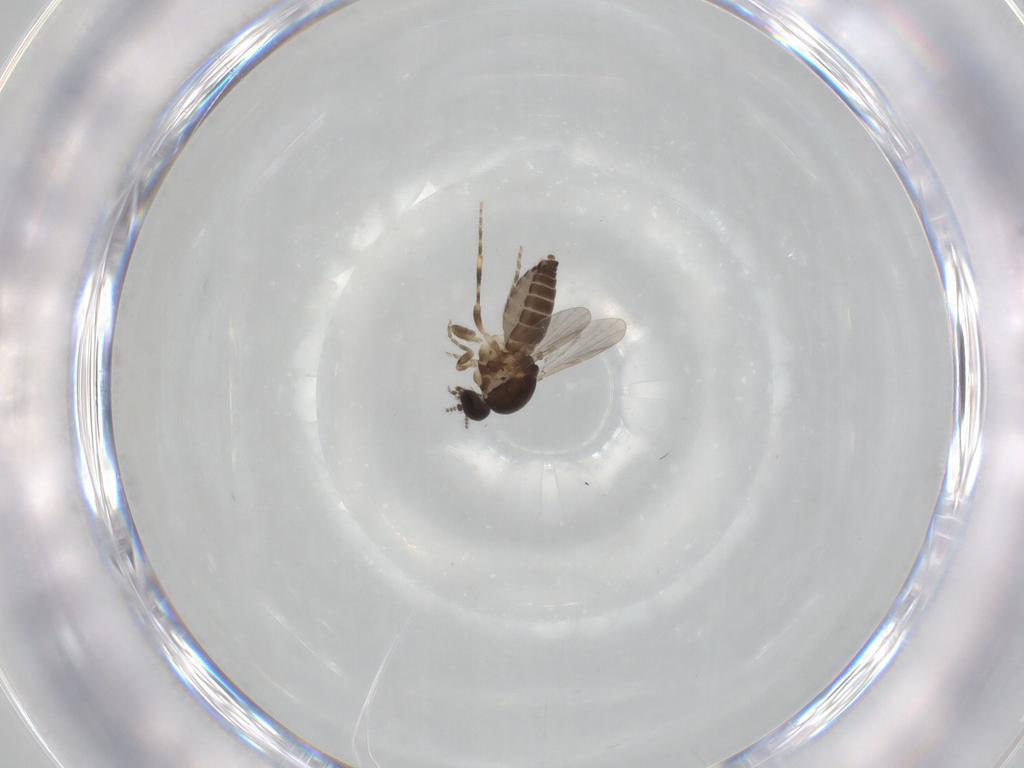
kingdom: Animalia
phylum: Arthropoda
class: Insecta
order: Diptera
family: Ceratopogonidae
